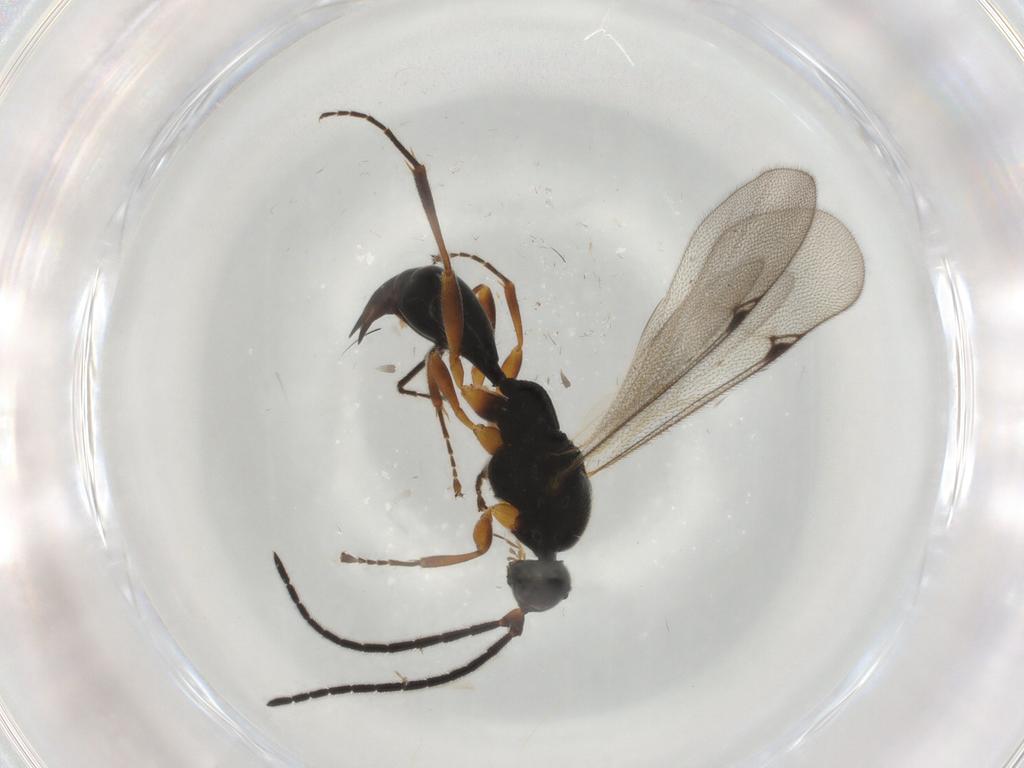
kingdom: Animalia
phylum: Arthropoda
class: Insecta
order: Hymenoptera
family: Proctotrupidae
